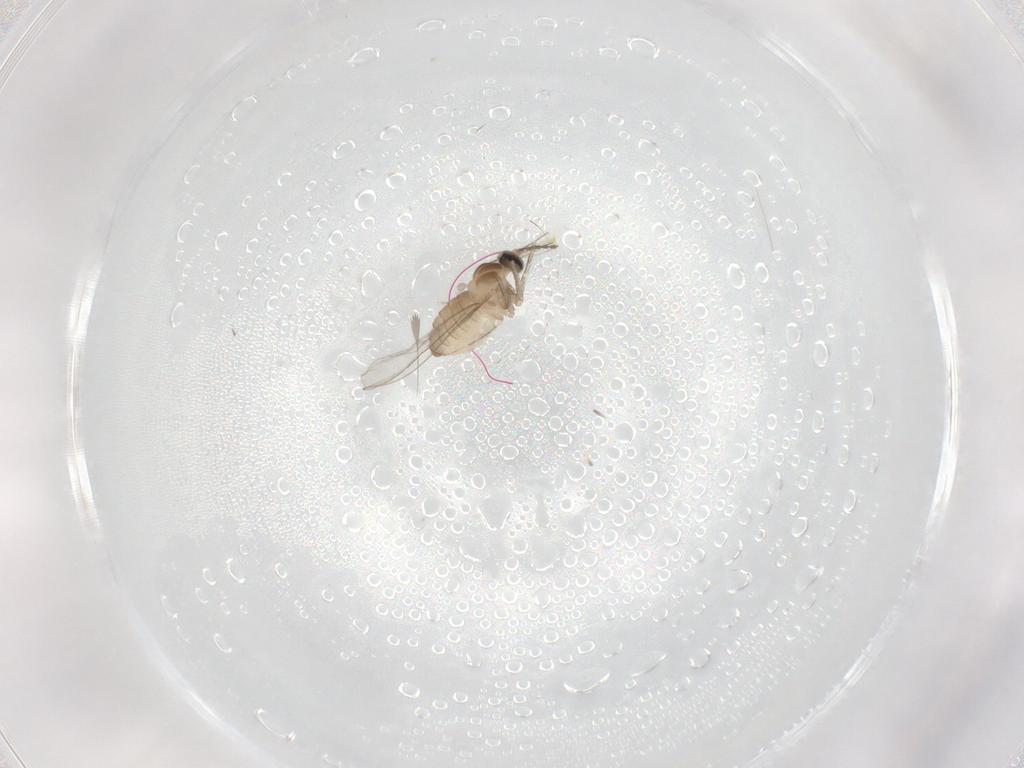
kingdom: Animalia
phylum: Arthropoda
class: Insecta
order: Diptera
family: Cecidomyiidae
